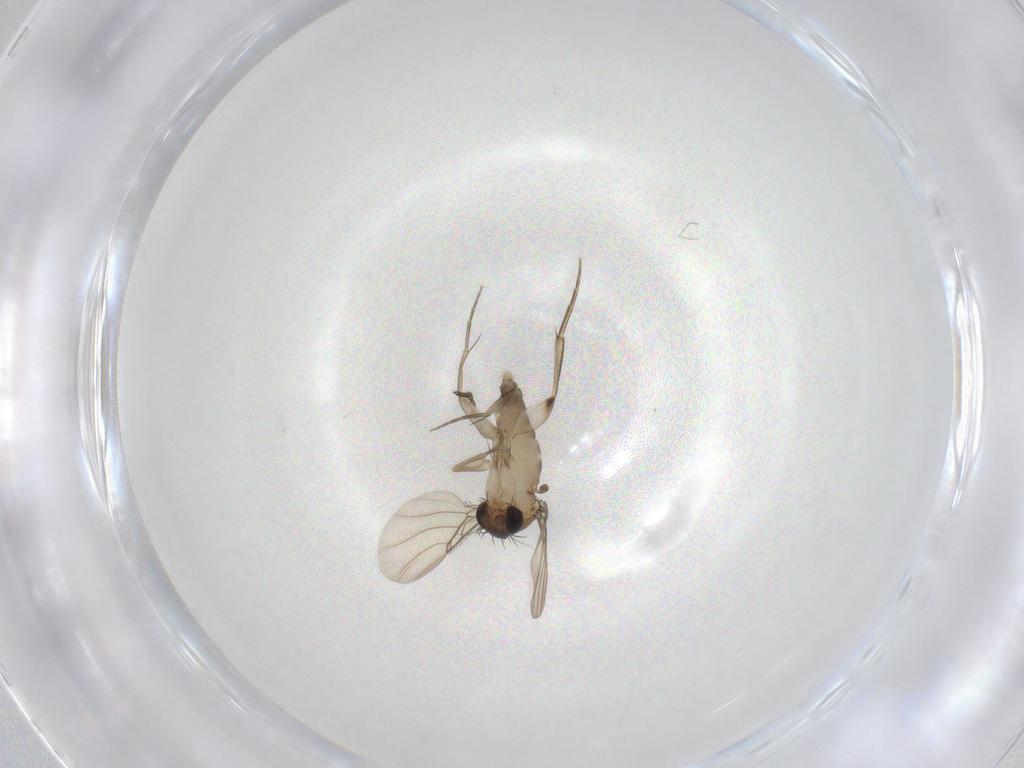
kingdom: Animalia
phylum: Arthropoda
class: Insecta
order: Diptera
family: Phoridae
